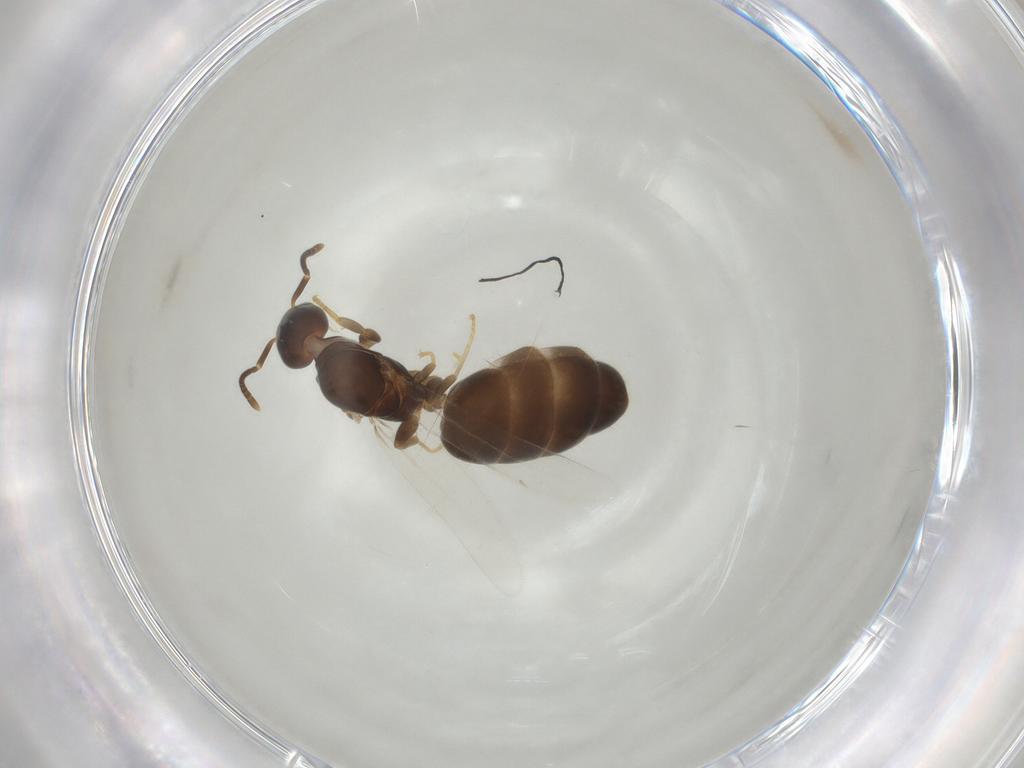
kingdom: Animalia
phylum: Arthropoda
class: Insecta
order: Hymenoptera
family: Formicidae
